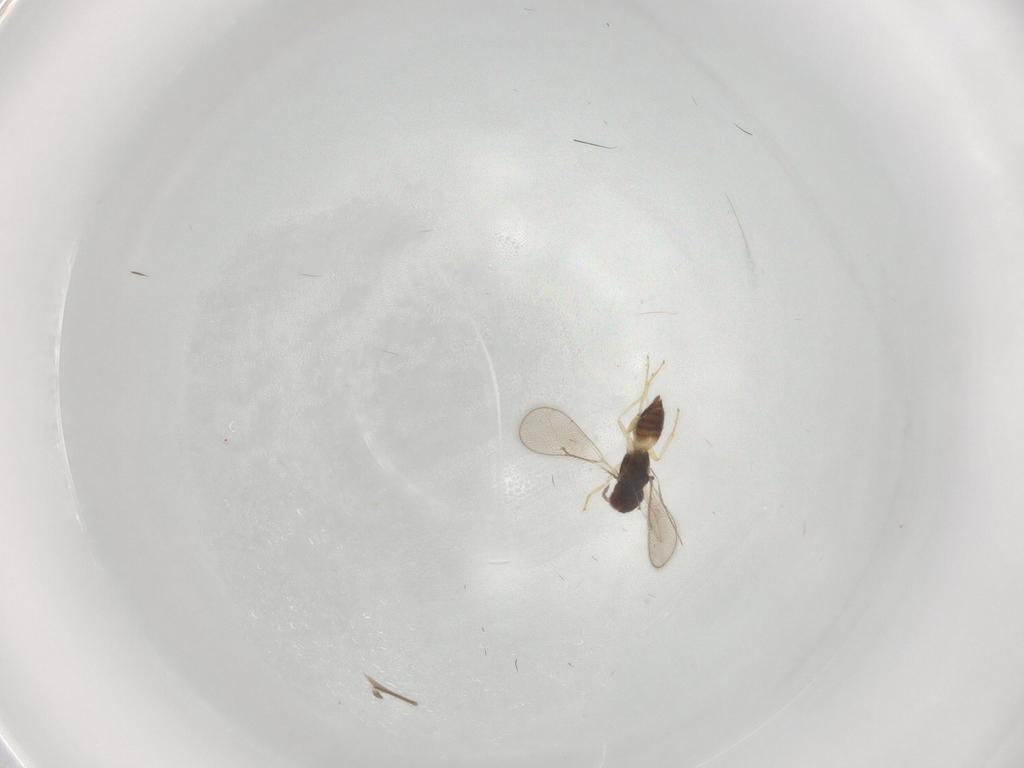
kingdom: Animalia
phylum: Arthropoda
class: Insecta
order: Hymenoptera
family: Eulophidae
